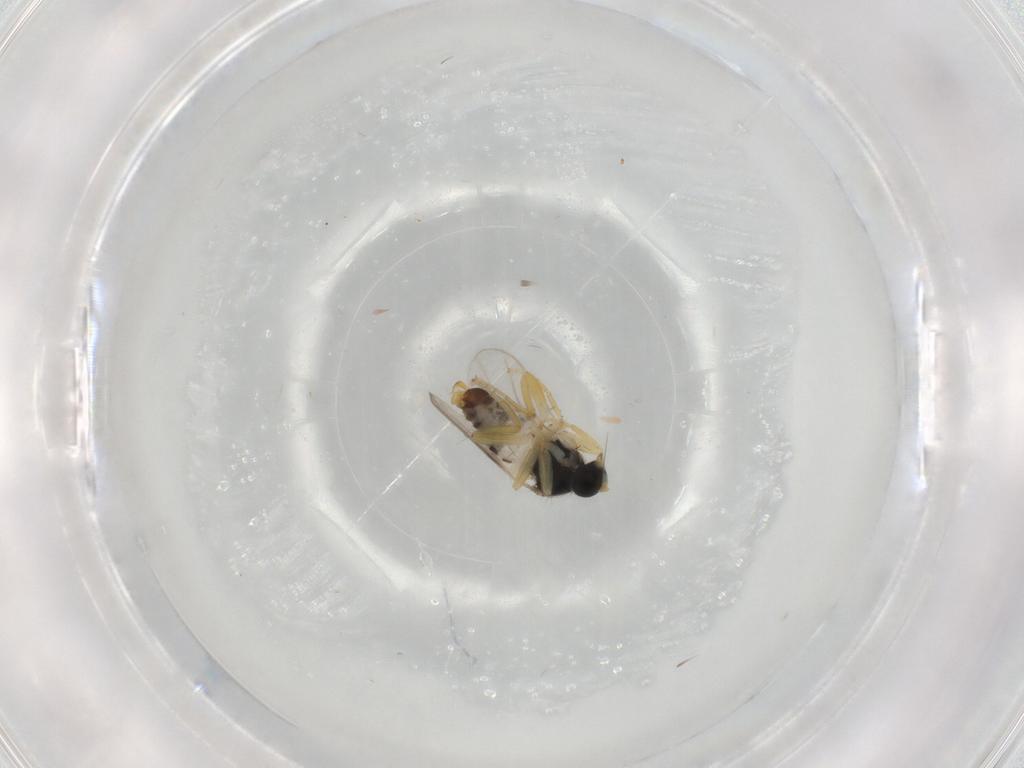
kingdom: Animalia
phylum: Arthropoda
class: Insecta
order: Diptera
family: Hybotidae
